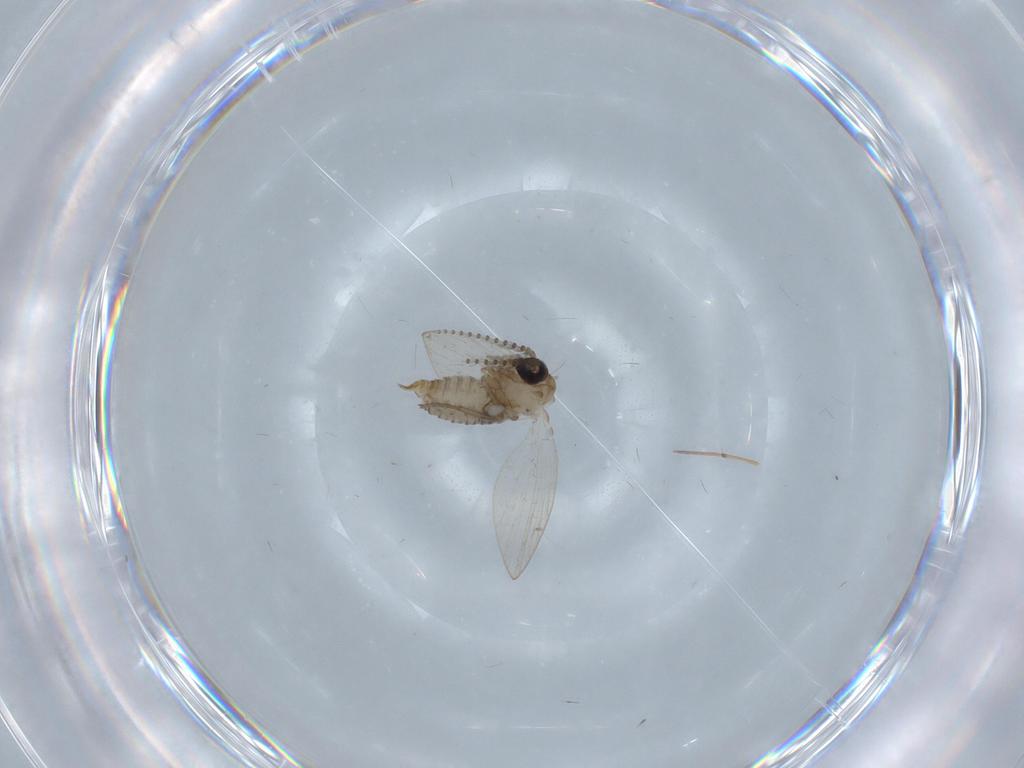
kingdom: Animalia
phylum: Arthropoda
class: Insecta
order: Diptera
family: Psychodidae
